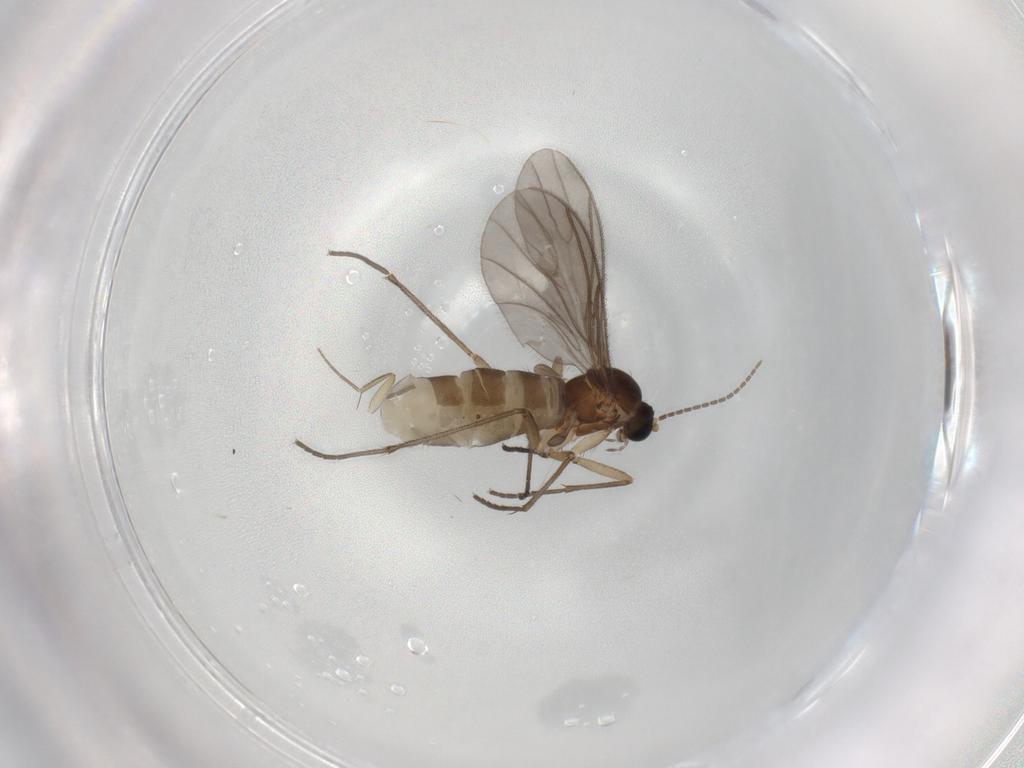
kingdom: Animalia
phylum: Arthropoda
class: Insecta
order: Diptera
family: Sciaridae
